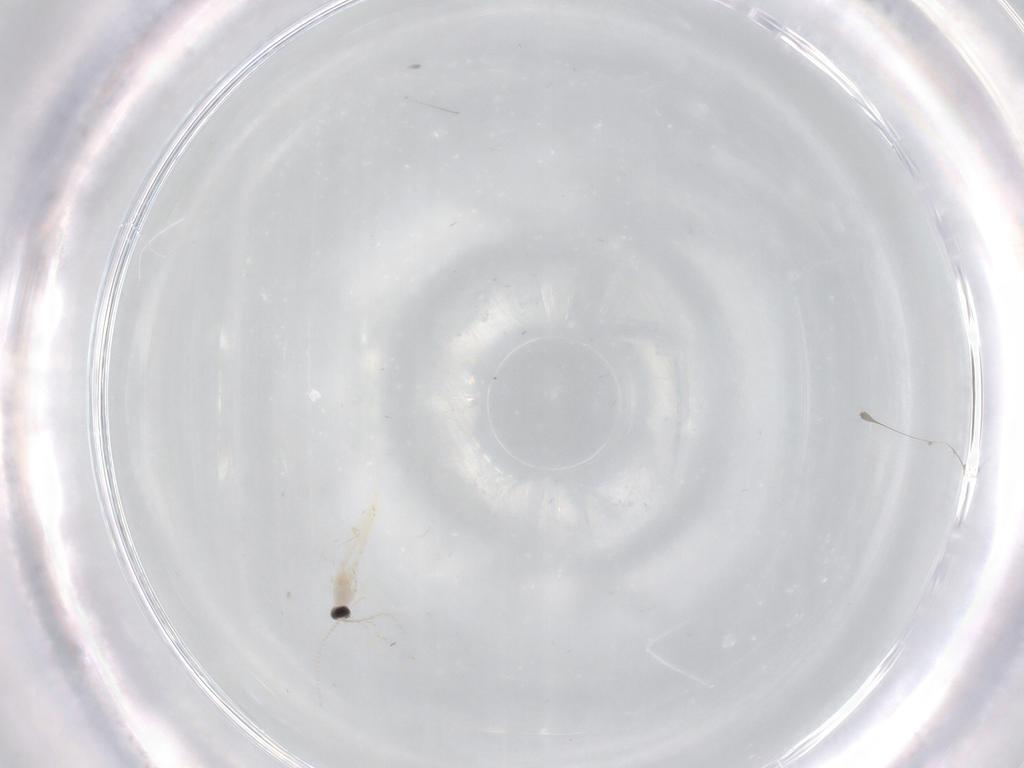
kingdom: Animalia
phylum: Arthropoda
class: Insecta
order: Diptera
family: Cecidomyiidae
